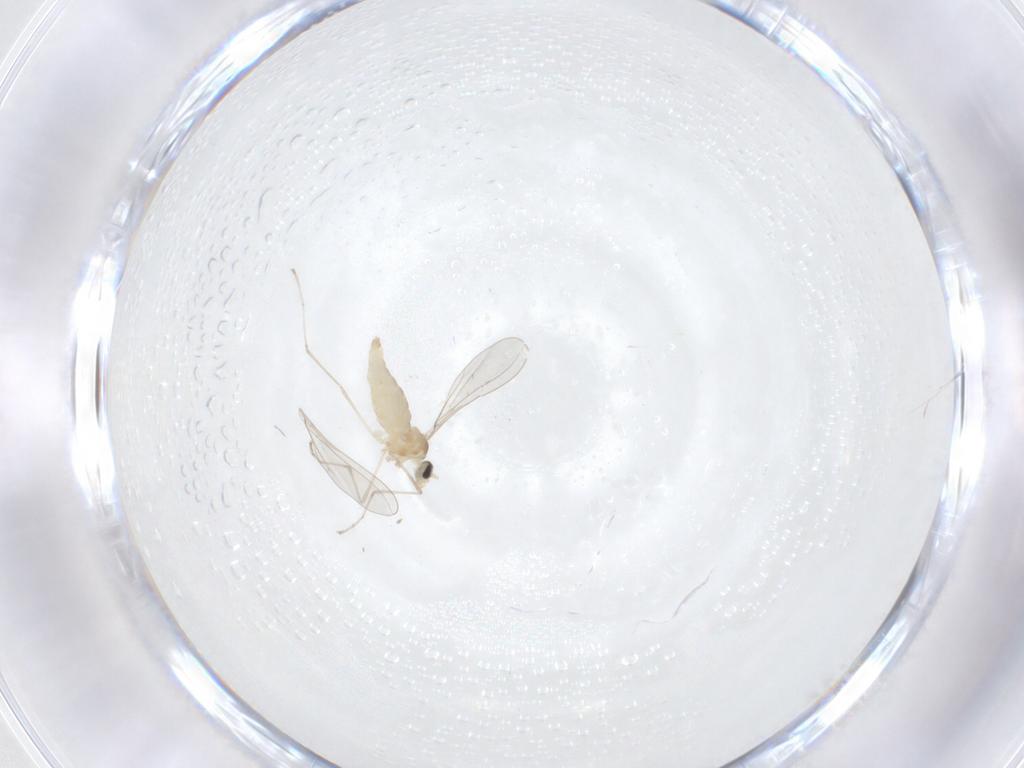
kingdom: Animalia
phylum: Arthropoda
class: Insecta
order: Diptera
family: Cecidomyiidae
